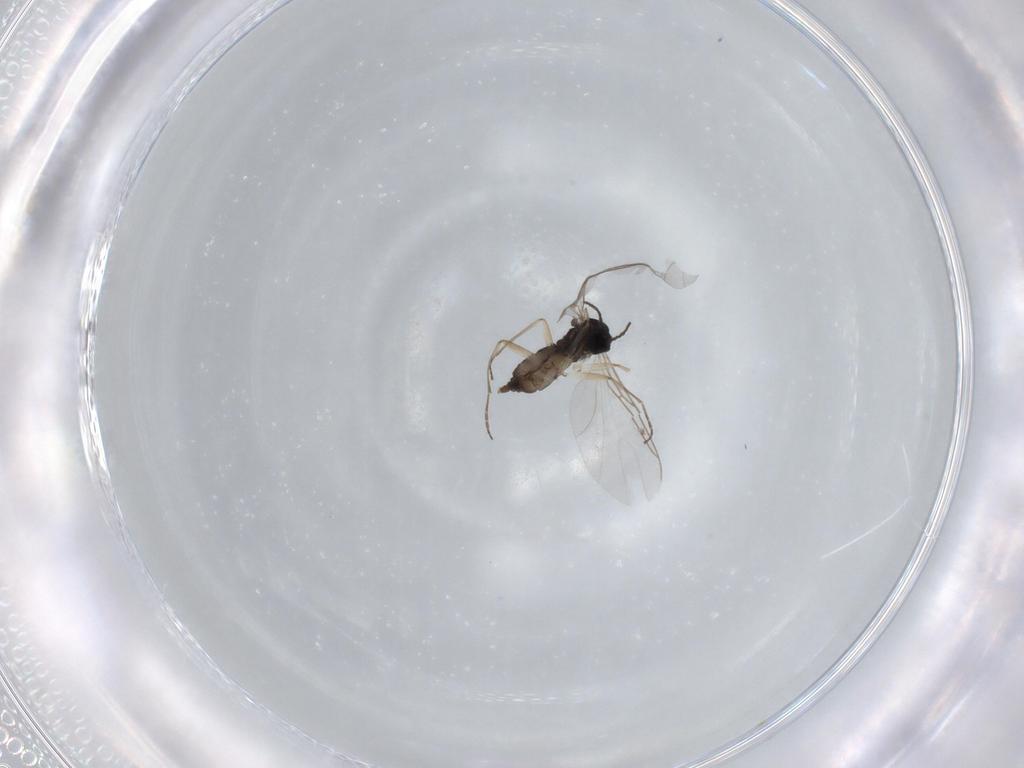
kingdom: Animalia
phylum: Arthropoda
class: Insecta
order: Diptera
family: Sciaridae
